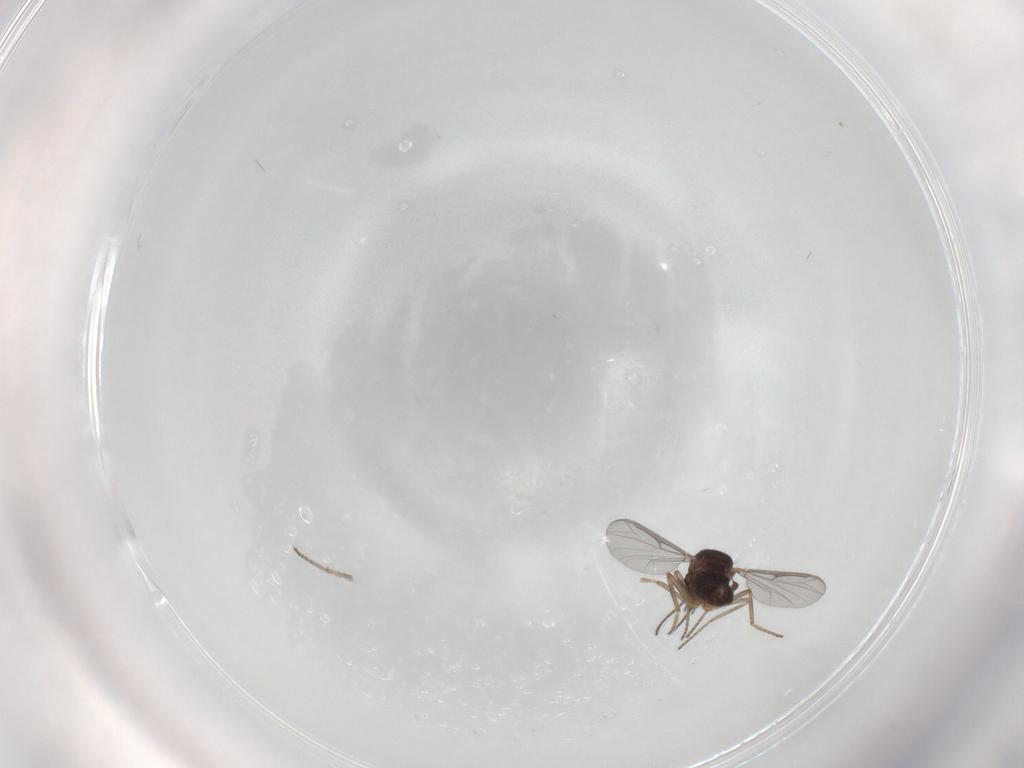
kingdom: Animalia
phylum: Arthropoda
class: Insecta
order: Diptera
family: Ceratopogonidae
